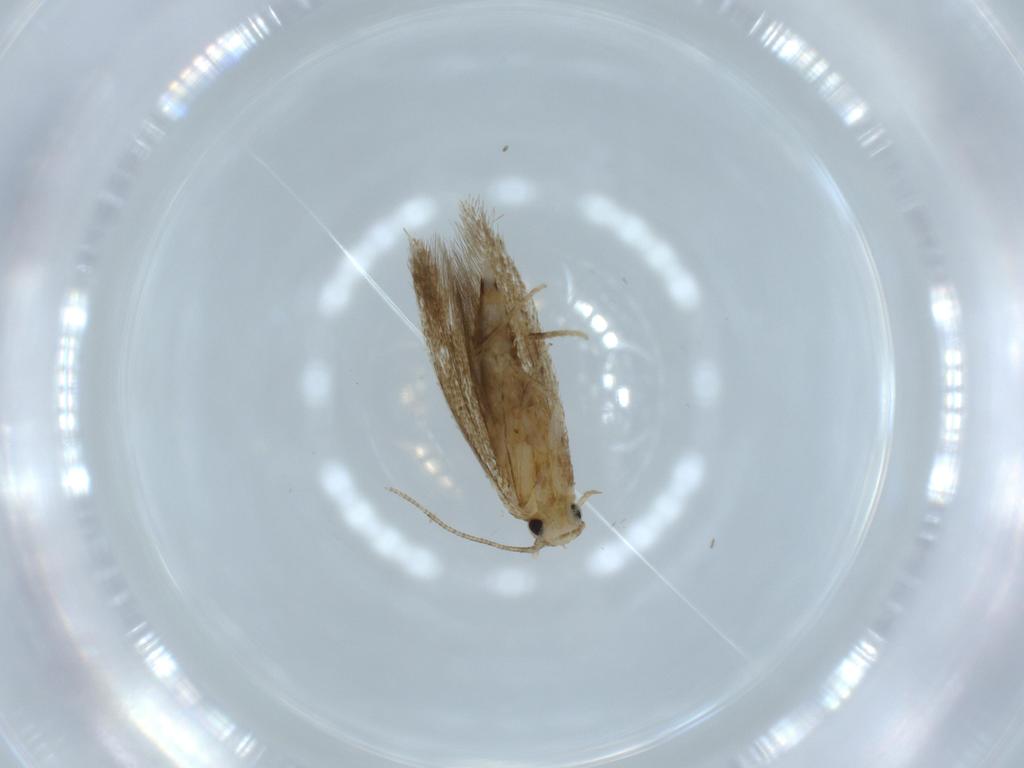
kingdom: Animalia
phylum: Arthropoda
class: Insecta
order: Lepidoptera
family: Tineidae
